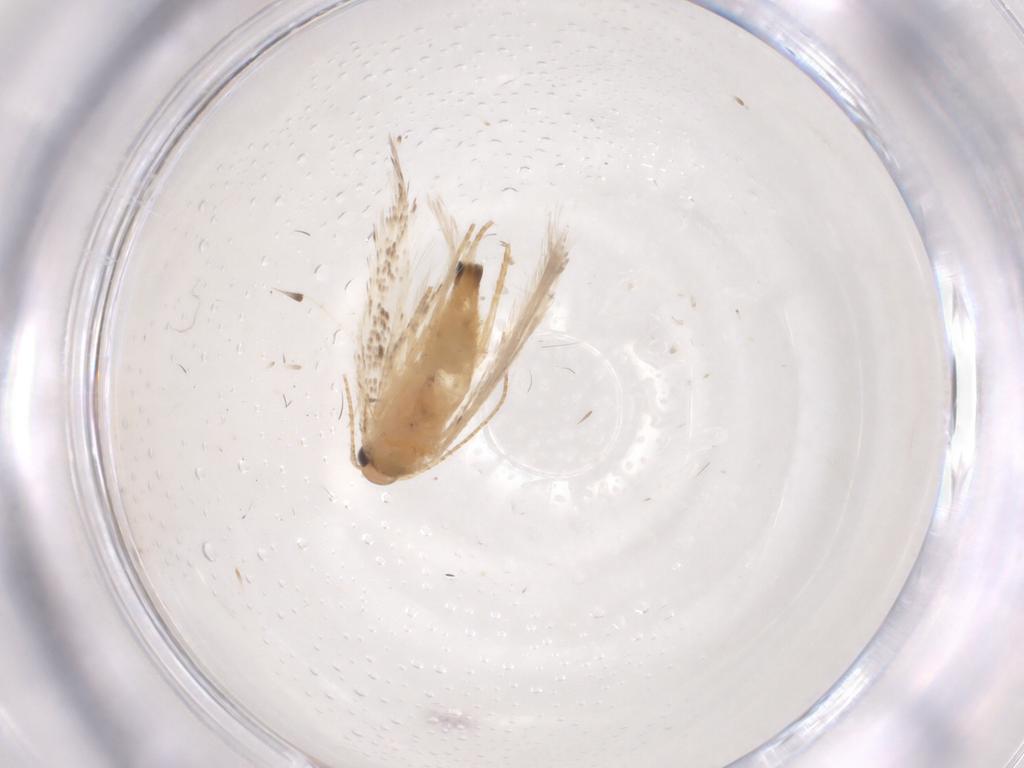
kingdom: Animalia
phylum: Arthropoda
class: Insecta
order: Lepidoptera
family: Gelechiidae
